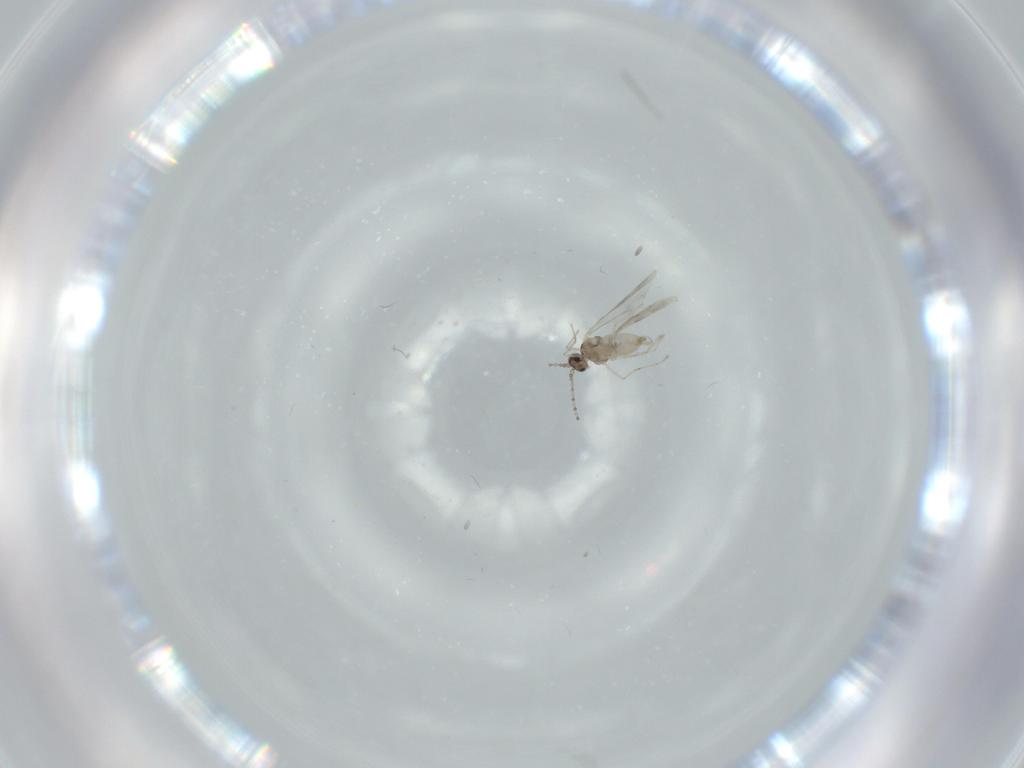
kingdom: Animalia
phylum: Arthropoda
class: Insecta
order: Diptera
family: Cecidomyiidae
